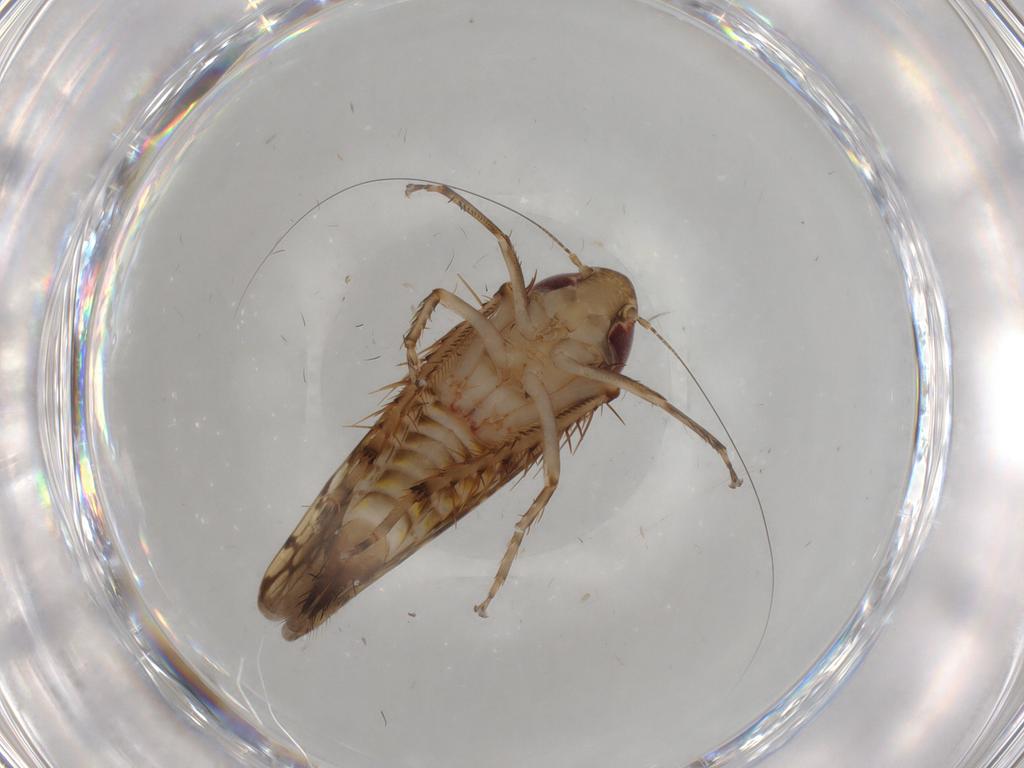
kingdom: Animalia
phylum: Arthropoda
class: Insecta
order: Hemiptera
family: Cicadellidae
